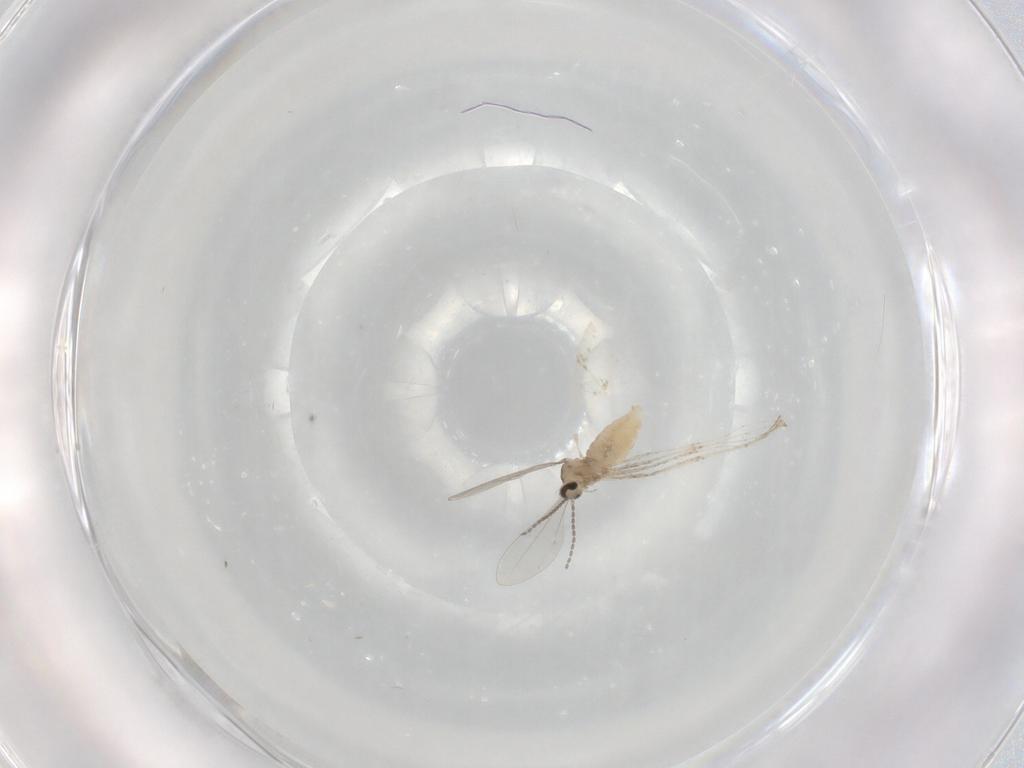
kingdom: Animalia
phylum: Arthropoda
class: Insecta
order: Diptera
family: Cecidomyiidae
